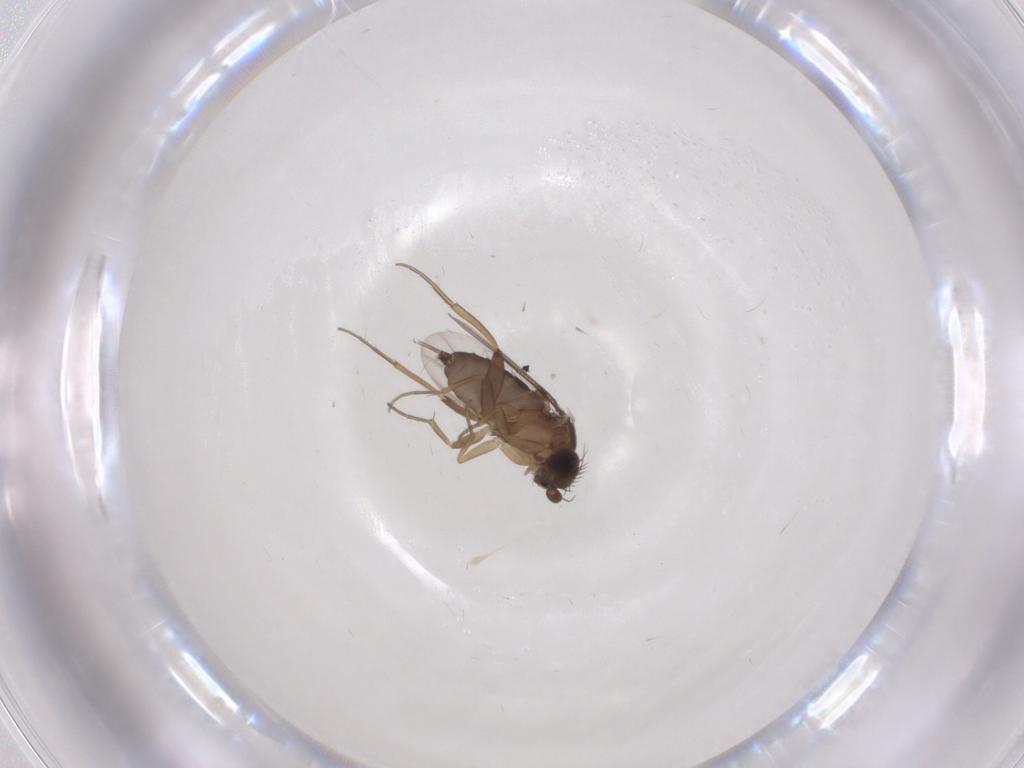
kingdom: Animalia
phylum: Arthropoda
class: Insecta
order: Diptera
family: Phoridae
